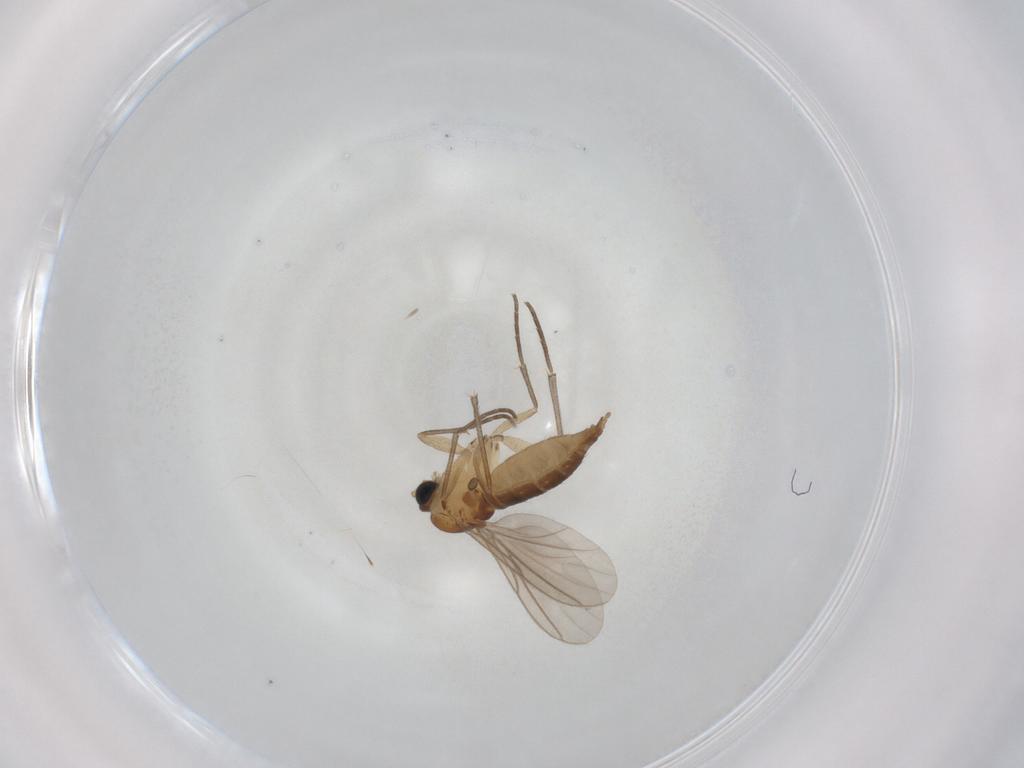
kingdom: Animalia
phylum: Arthropoda
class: Insecta
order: Diptera
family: Sciaridae
